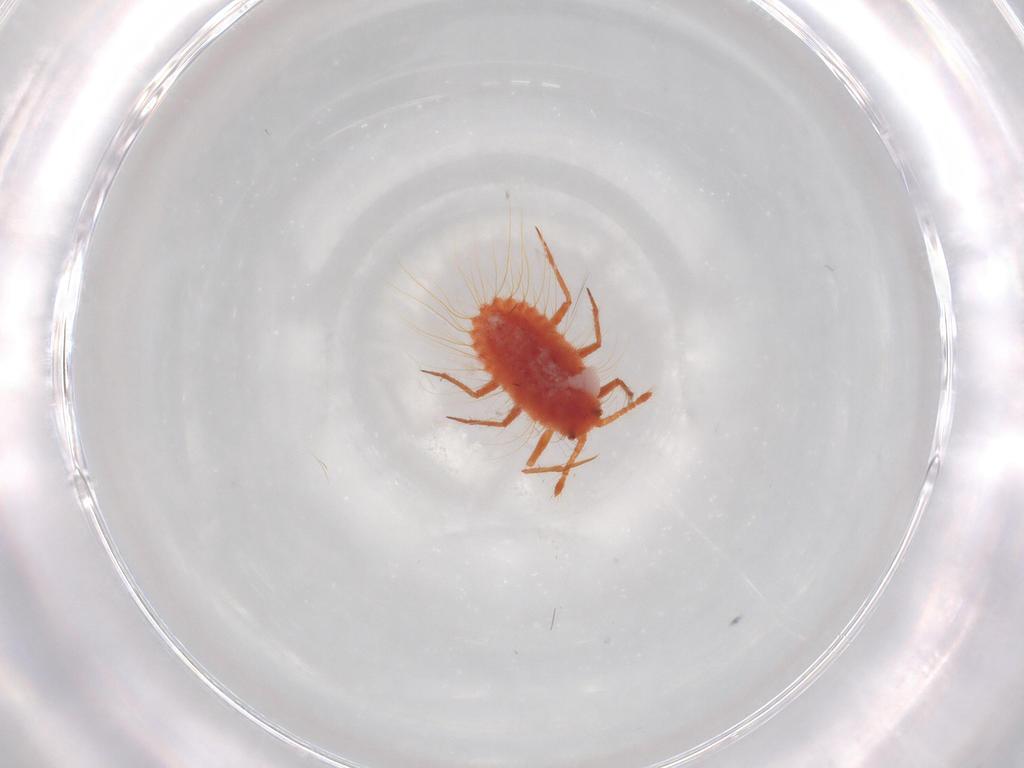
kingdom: Animalia
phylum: Arthropoda
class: Insecta
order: Hemiptera
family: Monophlebidae
